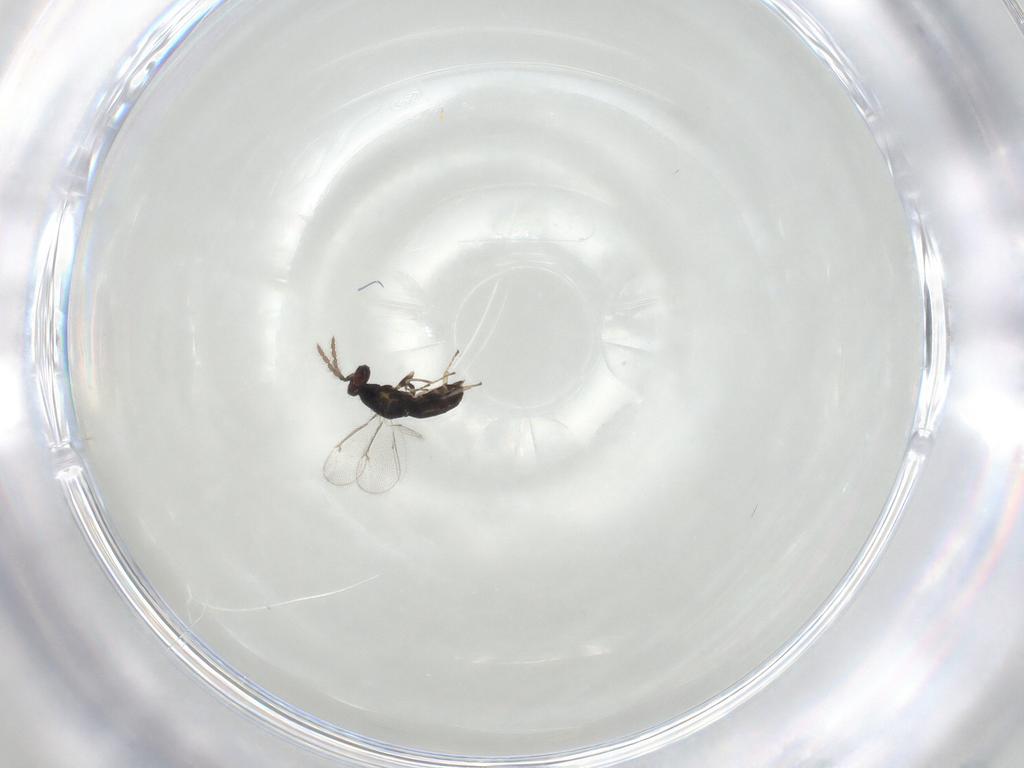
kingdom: Animalia
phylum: Arthropoda
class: Insecta
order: Hymenoptera
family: Eulophidae
